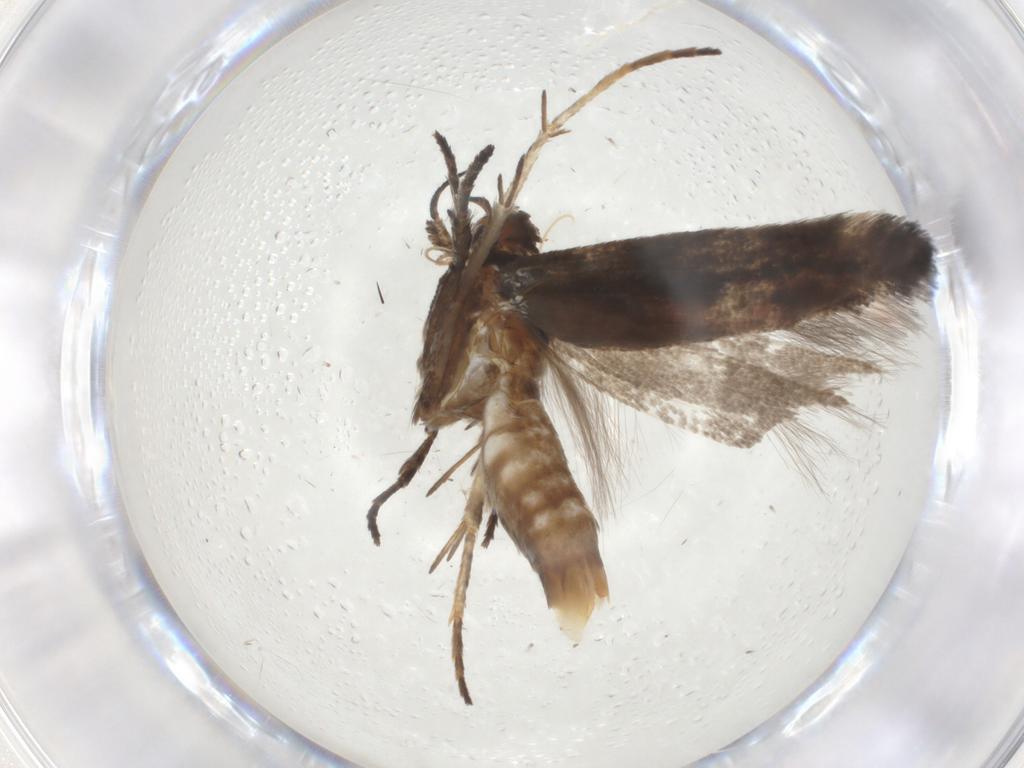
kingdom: Animalia
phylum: Arthropoda
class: Insecta
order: Lepidoptera
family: Gelechiidae
